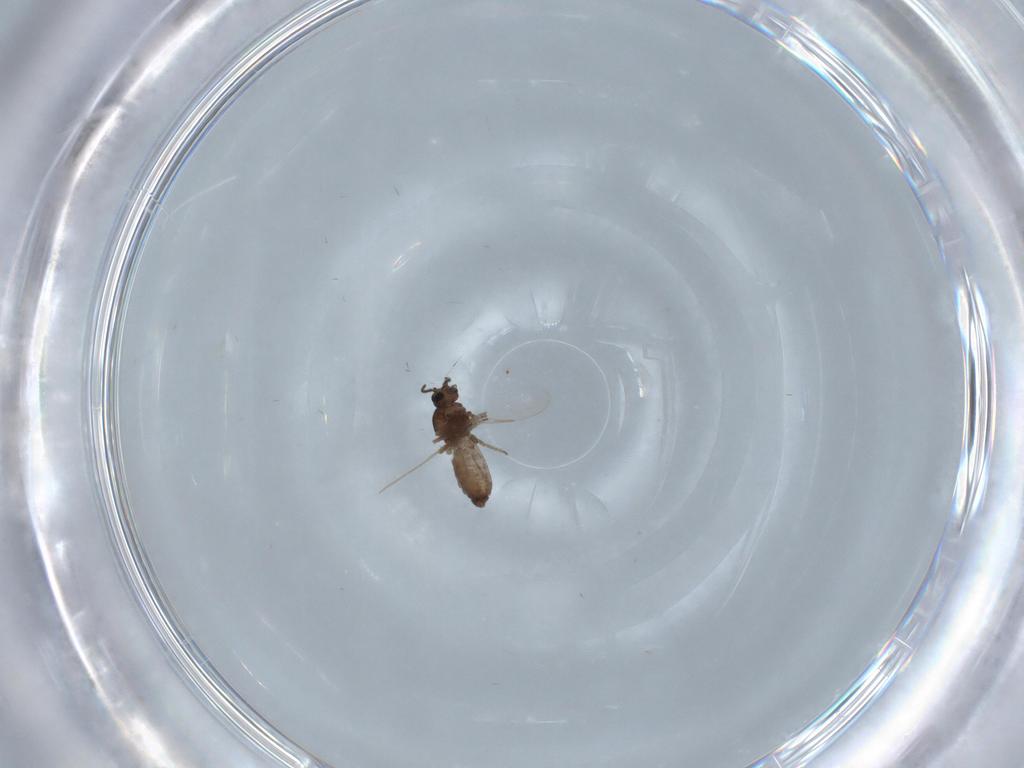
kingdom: Animalia
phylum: Arthropoda
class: Insecta
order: Diptera
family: Ceratopogonidae
